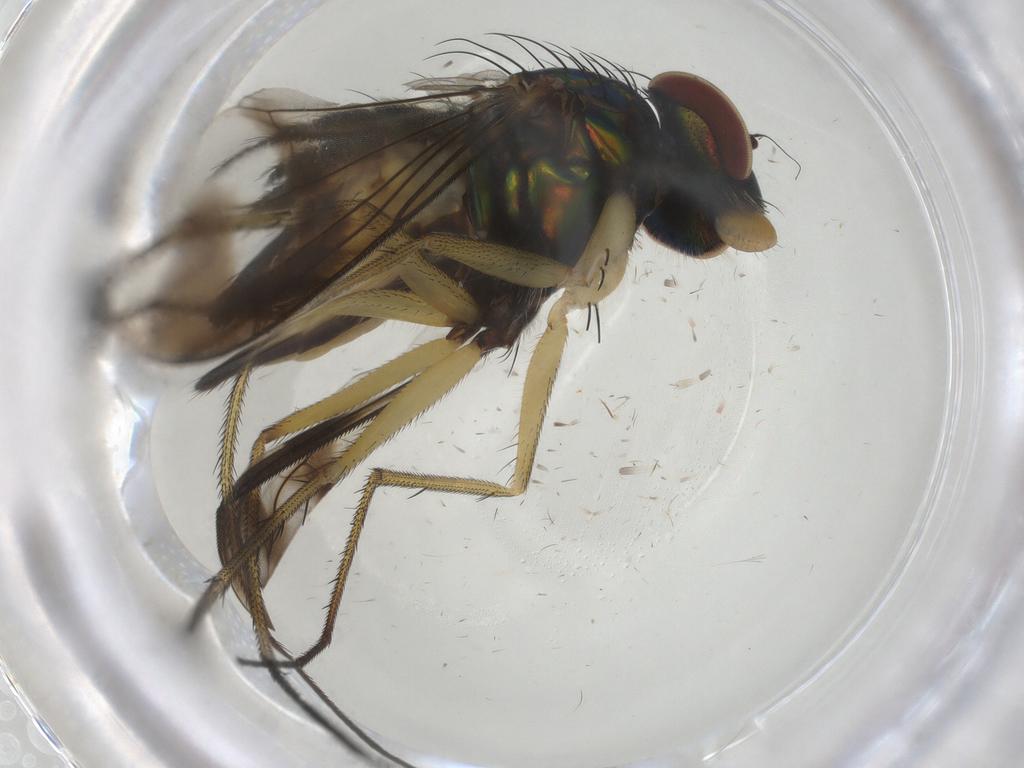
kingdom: Animalia
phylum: Arthropoda
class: Insecta
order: Diptera
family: Dolichopodidae
